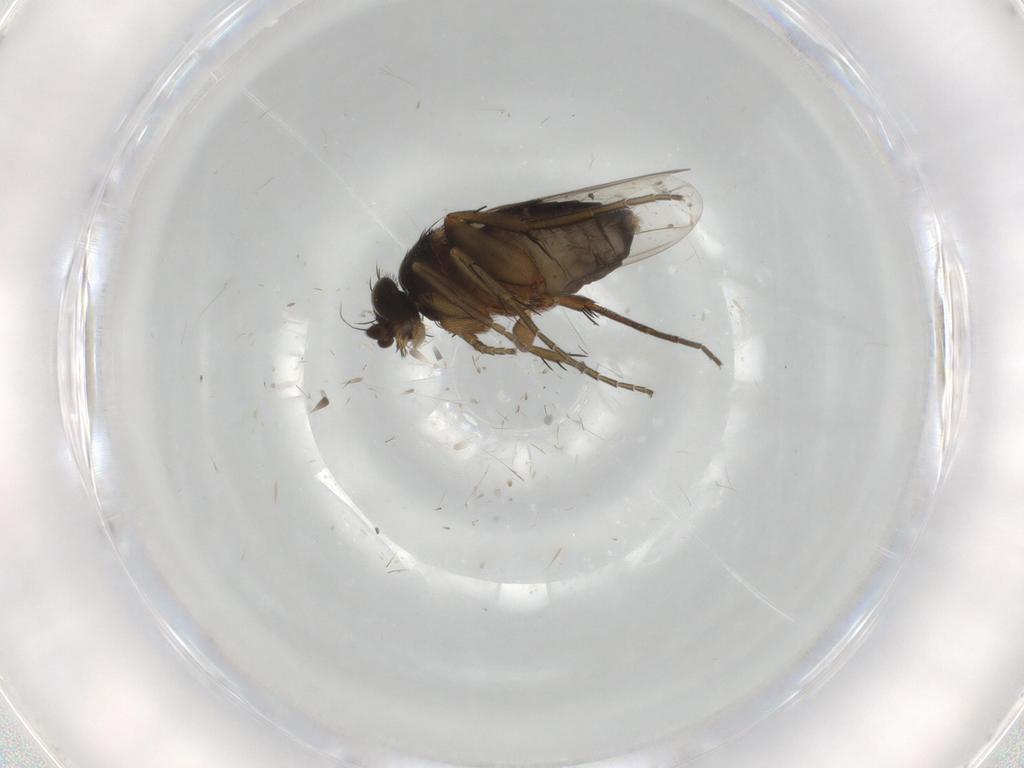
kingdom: Animalia
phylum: Arthropoda
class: Insecta
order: Diptera
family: Phoridae
